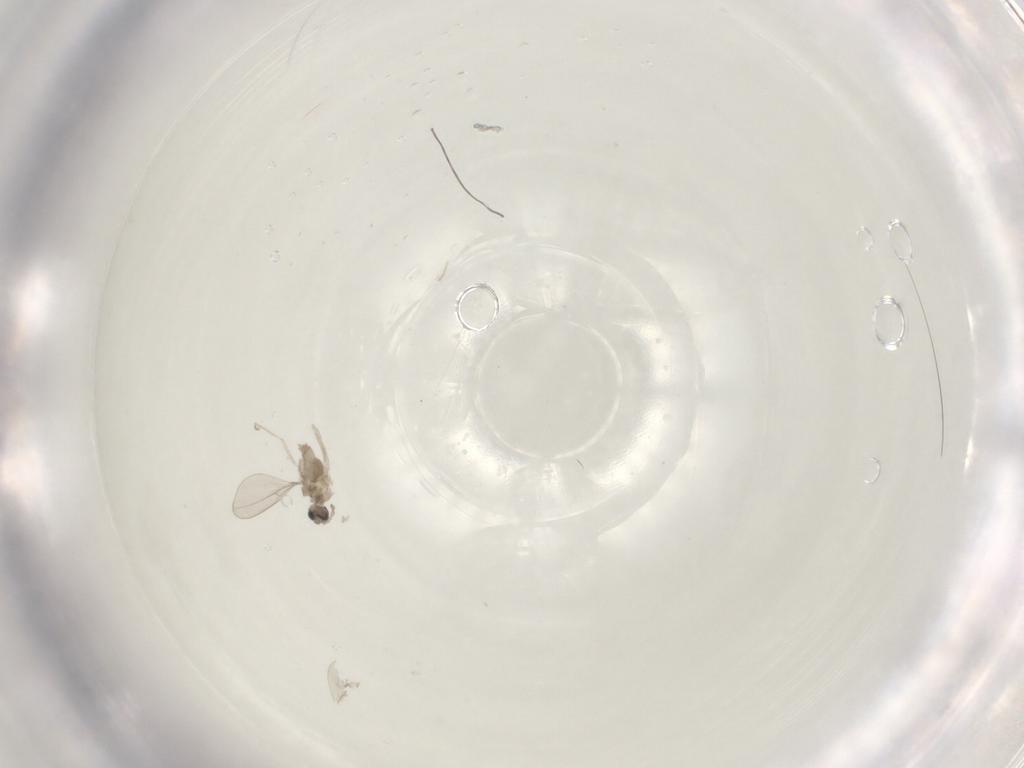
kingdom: Animalia
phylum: Arthropoda
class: Insecta
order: Diptera
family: Cecidomyiidae
